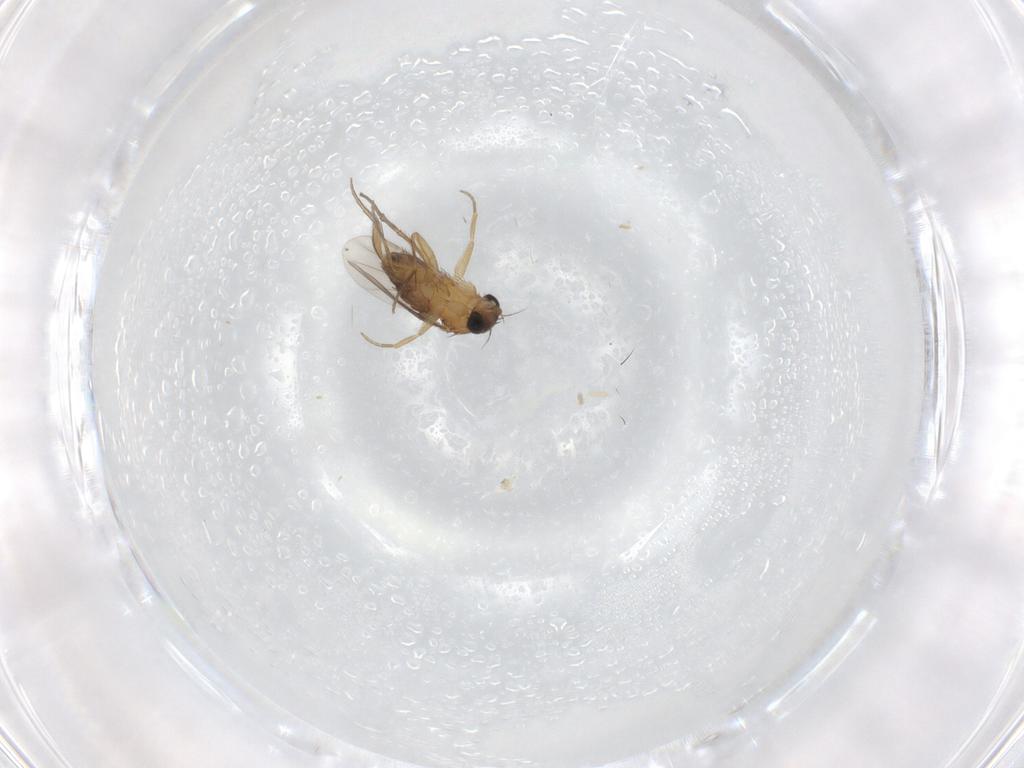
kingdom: Animalia
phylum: Arthropoda
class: Insecta
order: Diptera
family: Phoridae
